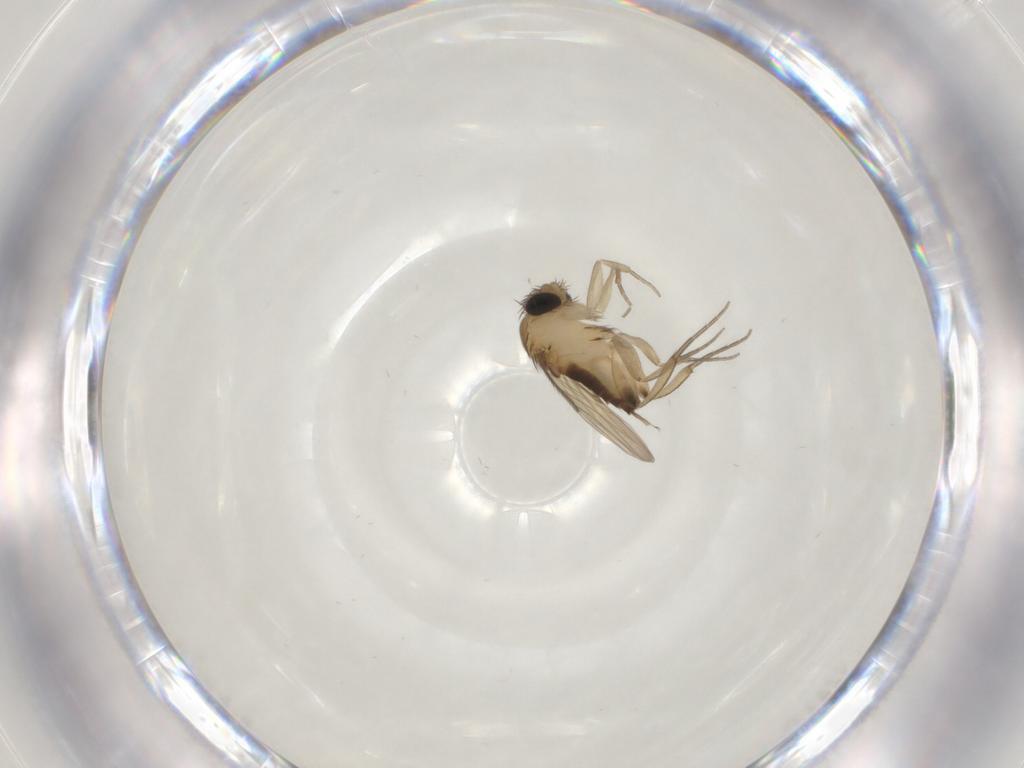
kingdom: Animalia
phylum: Arthropoda
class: Insecta
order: Diptera
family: Phoridae
